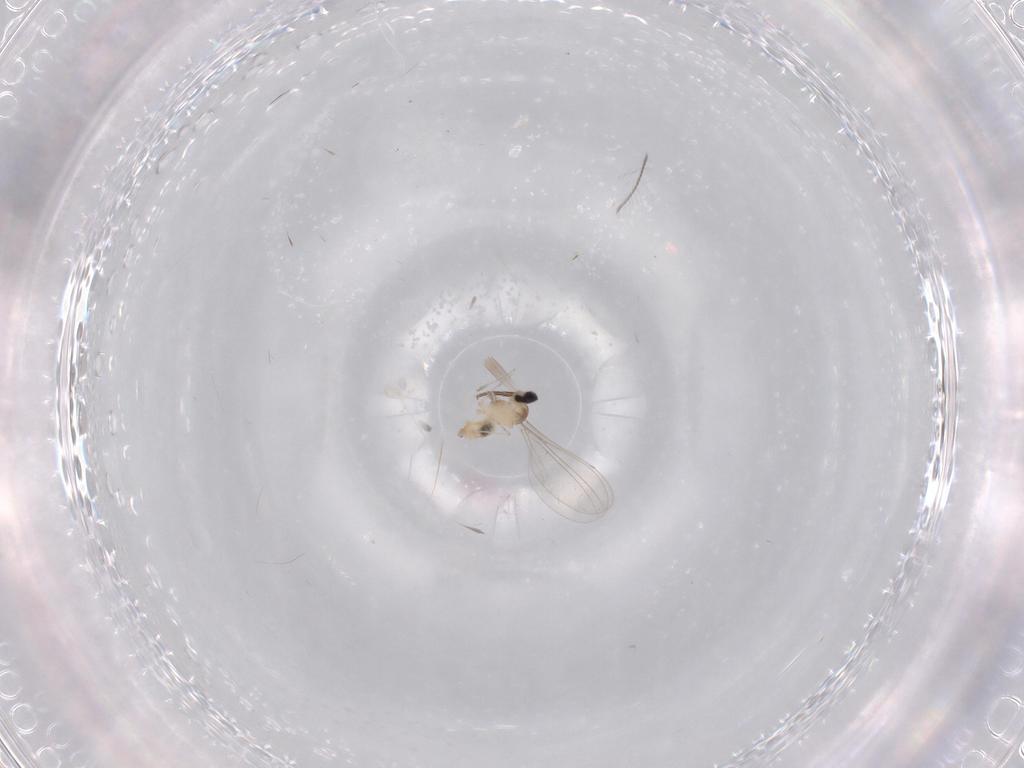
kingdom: Animalia
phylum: Arthropoda
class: Insecta
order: Diptera
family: Cecidomyiidae
